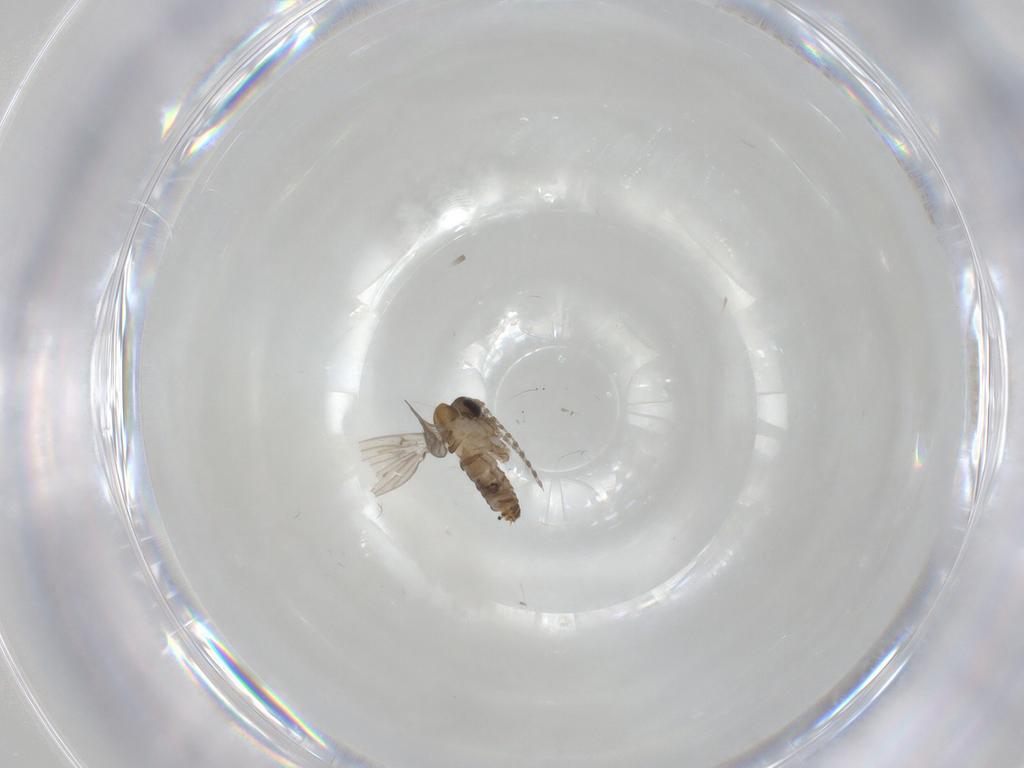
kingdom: Animalia
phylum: Arthropoda
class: Insecta
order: Diptera
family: Psychodidae
